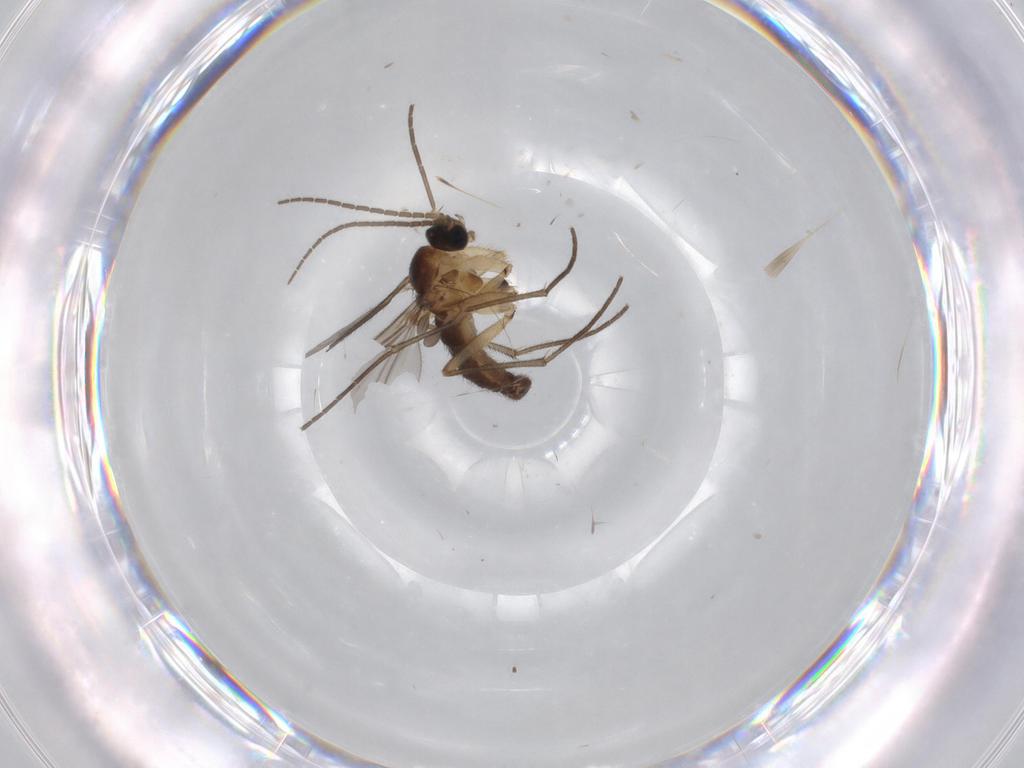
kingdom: Animalia
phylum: Arthropoda
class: Insecta
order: Diptera
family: Sciaridae
